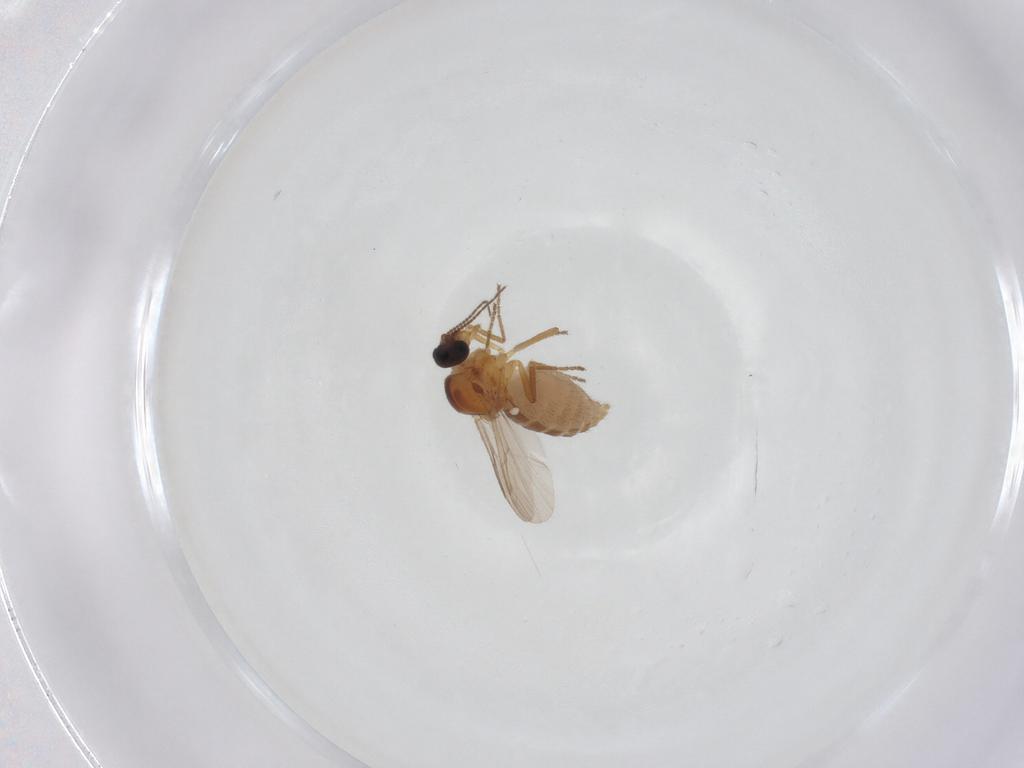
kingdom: Animalia
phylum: Arthropoda
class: Insecta
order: Diptera
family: Ceratopogonidae
